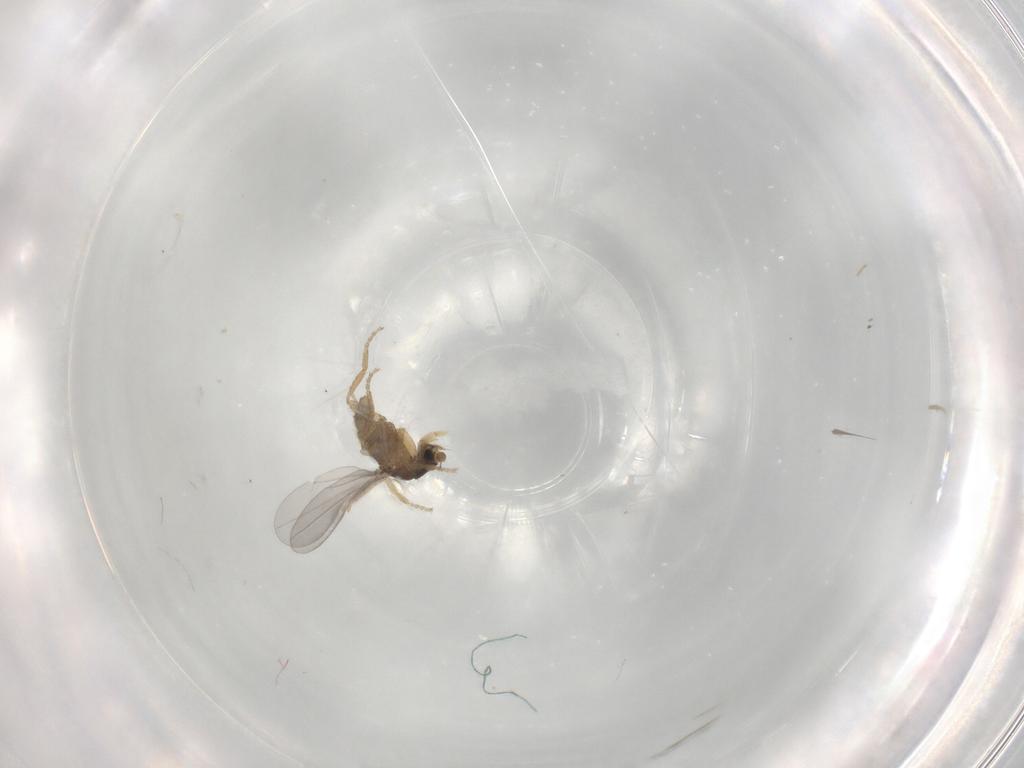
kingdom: Animalia
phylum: Arthropoda
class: Insecta
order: Diptera
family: Phoridae
